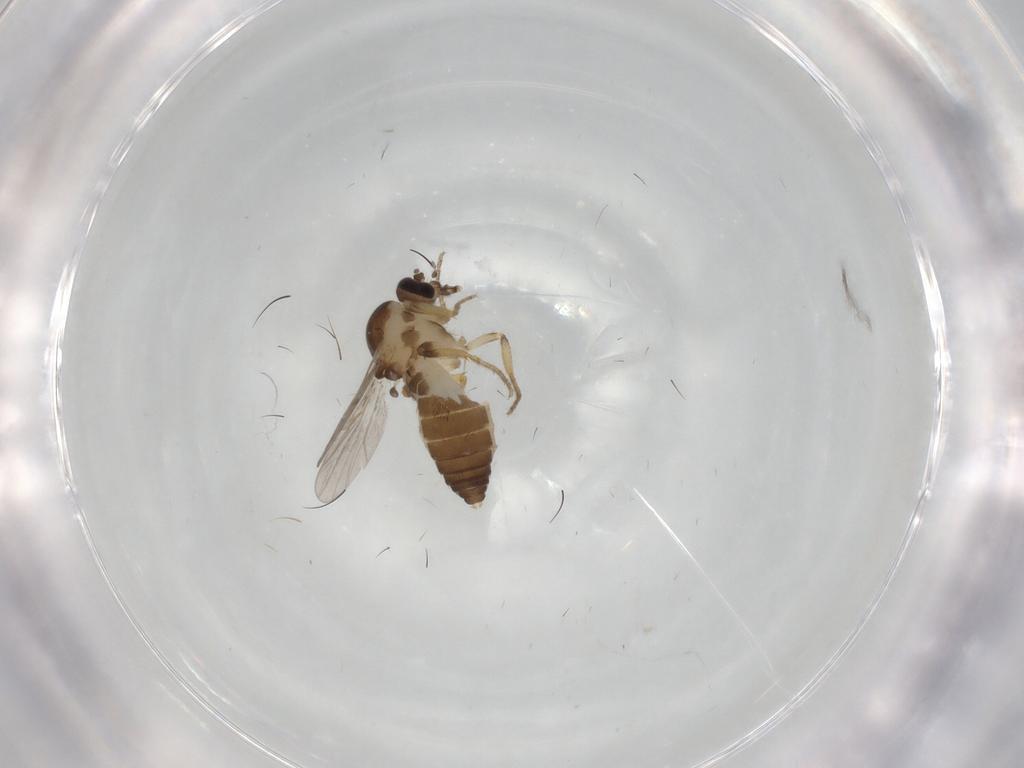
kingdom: Animalia
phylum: Arthropoda
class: Insecta
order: Diptera
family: Ceratopogonidae
